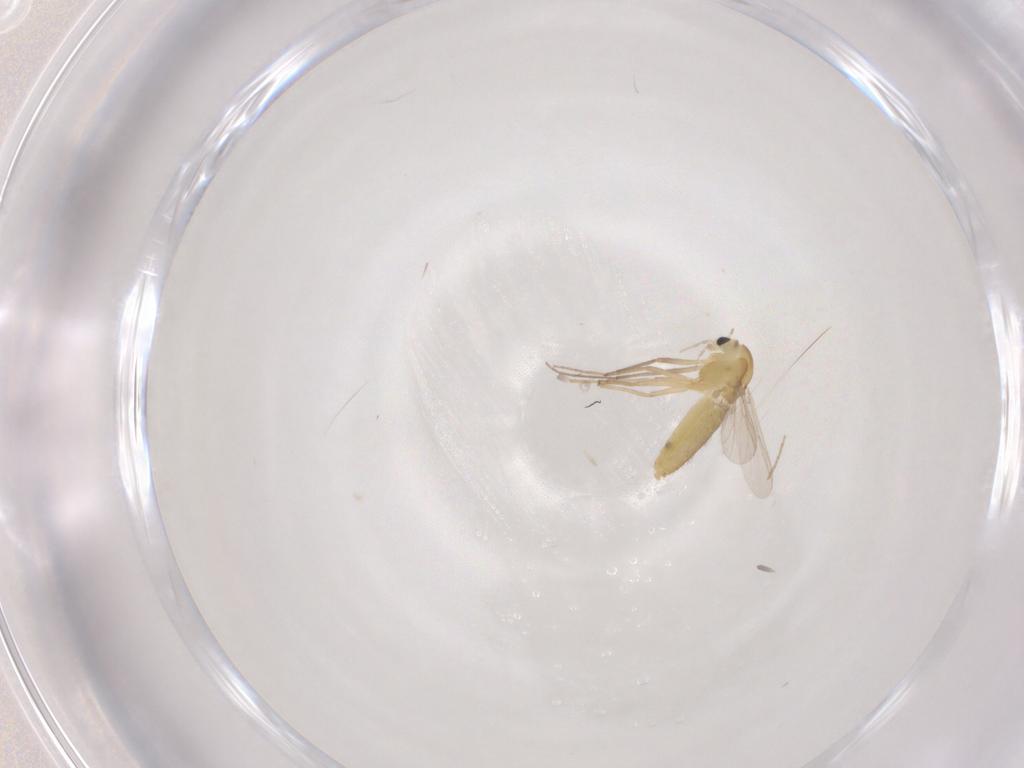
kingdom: Animalia
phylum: Arthropoda
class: Insecta
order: Diptera
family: Chironomidae
